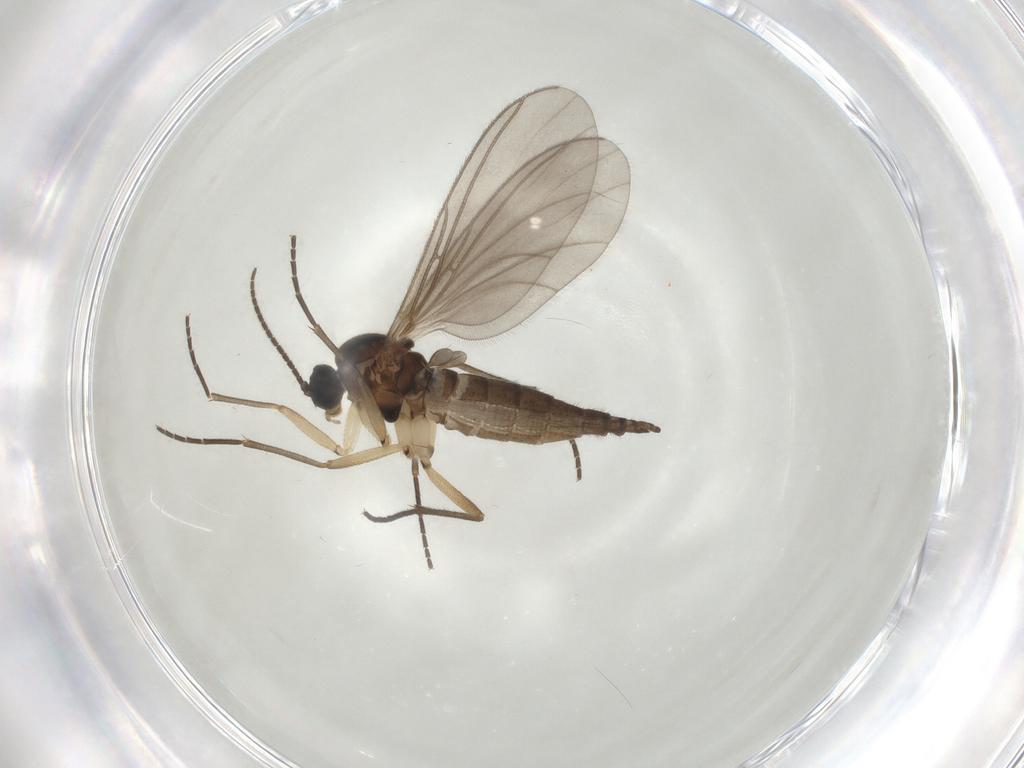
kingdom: Animalia
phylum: Arthropoda
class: Insecta
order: Diptera
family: Sciaridae
